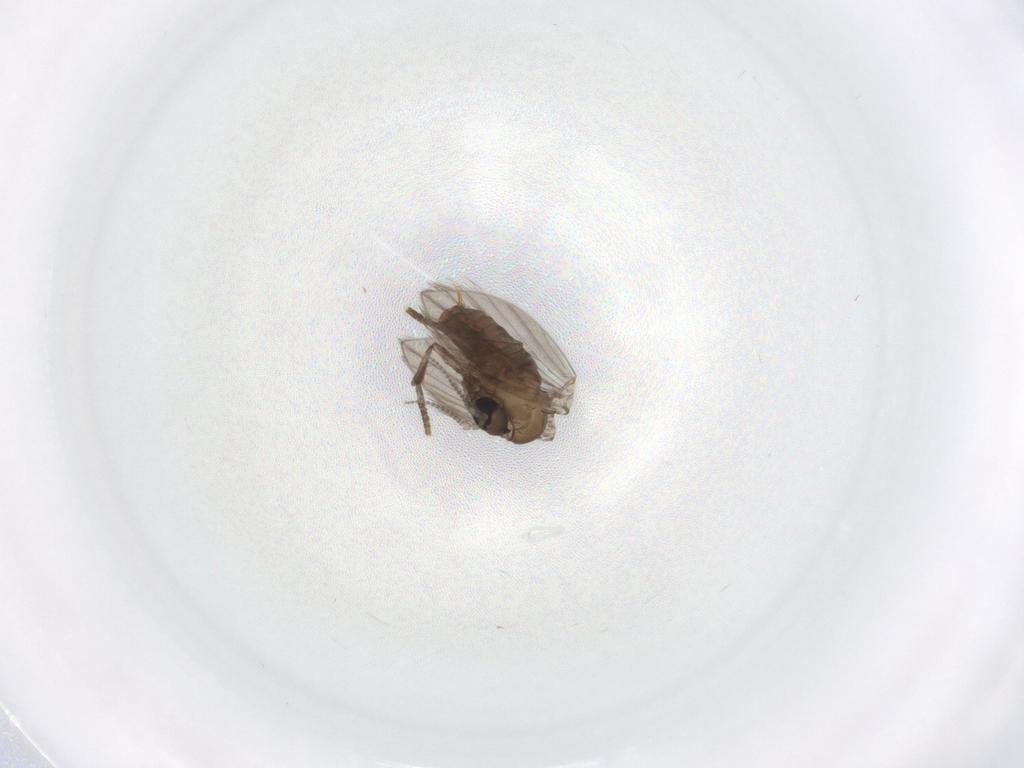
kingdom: Animalia
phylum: Arthropoda
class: Insecta
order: Diptera
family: Psychodidae
